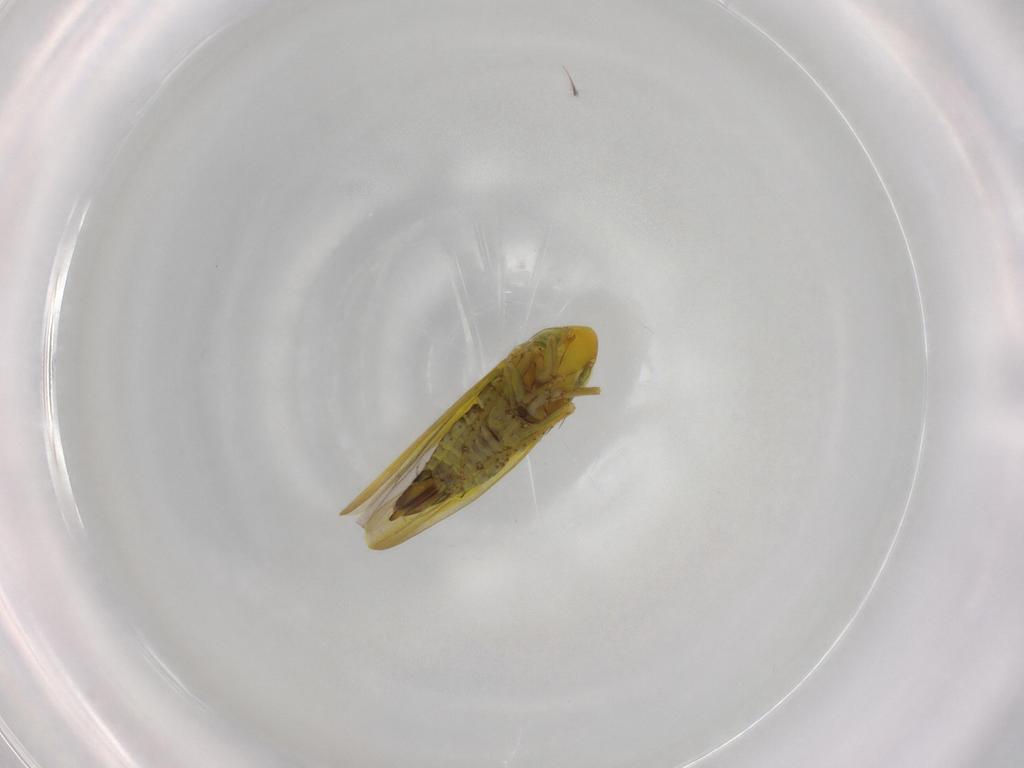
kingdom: Animalia
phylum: Arthropoda
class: Insecta
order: Hemiptera
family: Cicadellidae
